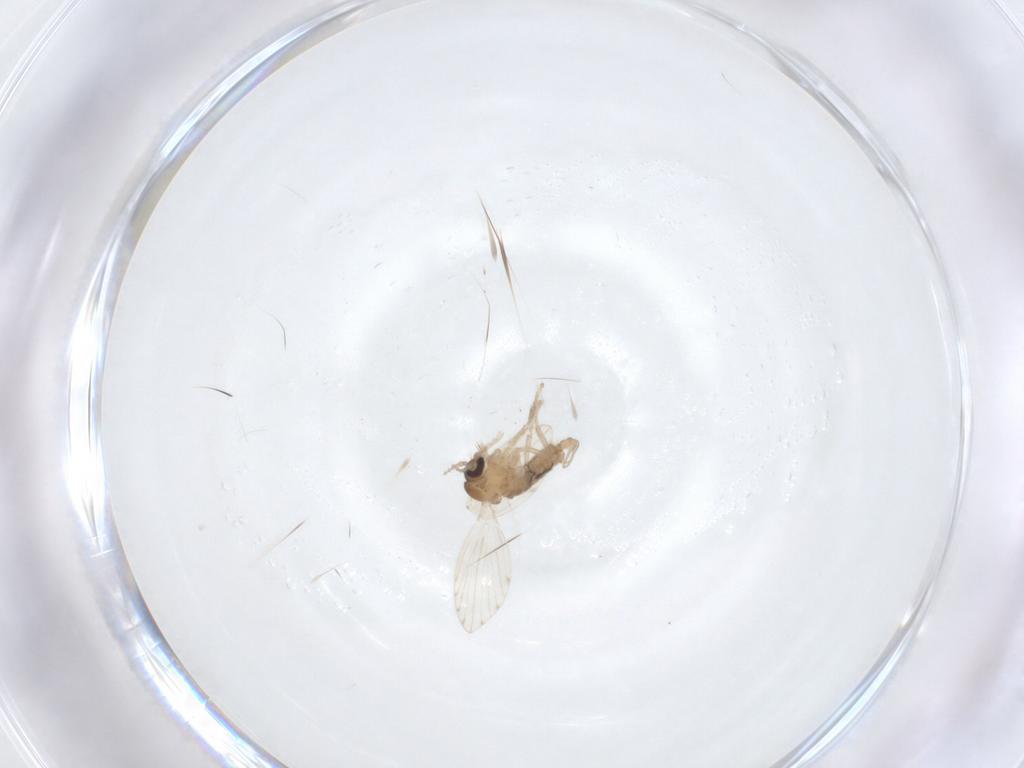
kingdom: Animalia
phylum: Arthropoda
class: Insecta
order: Diptera
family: Psychodidae
